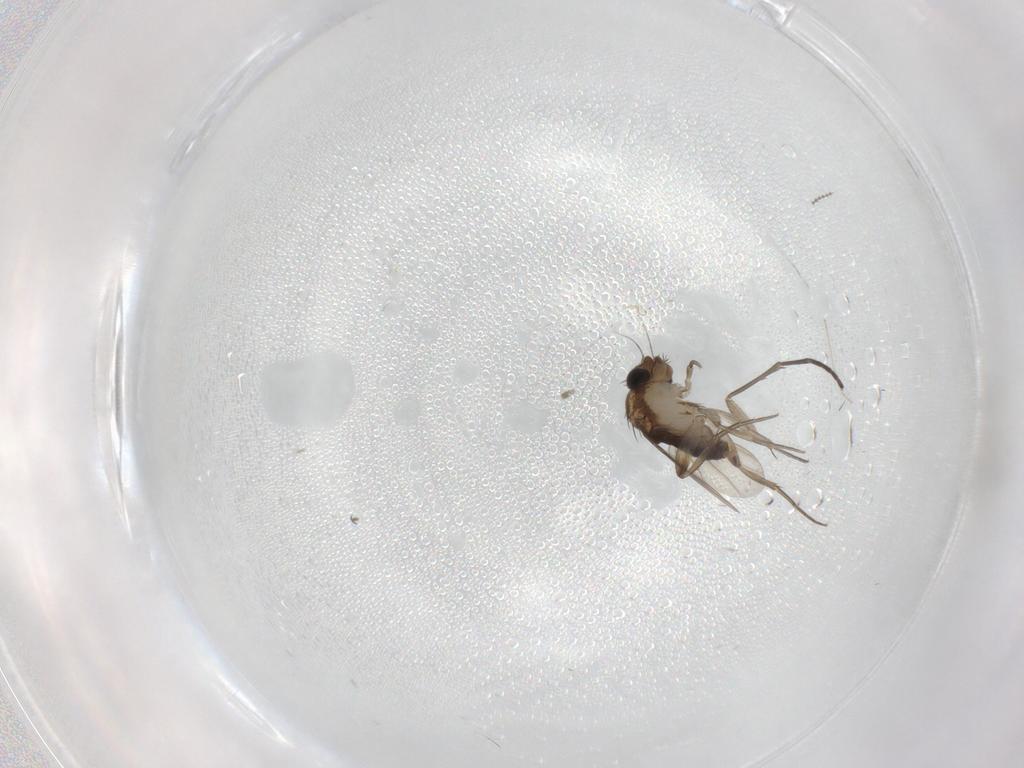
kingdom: Animalia
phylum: Arthropoda
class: Insecta
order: Diptera
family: Phoridae
